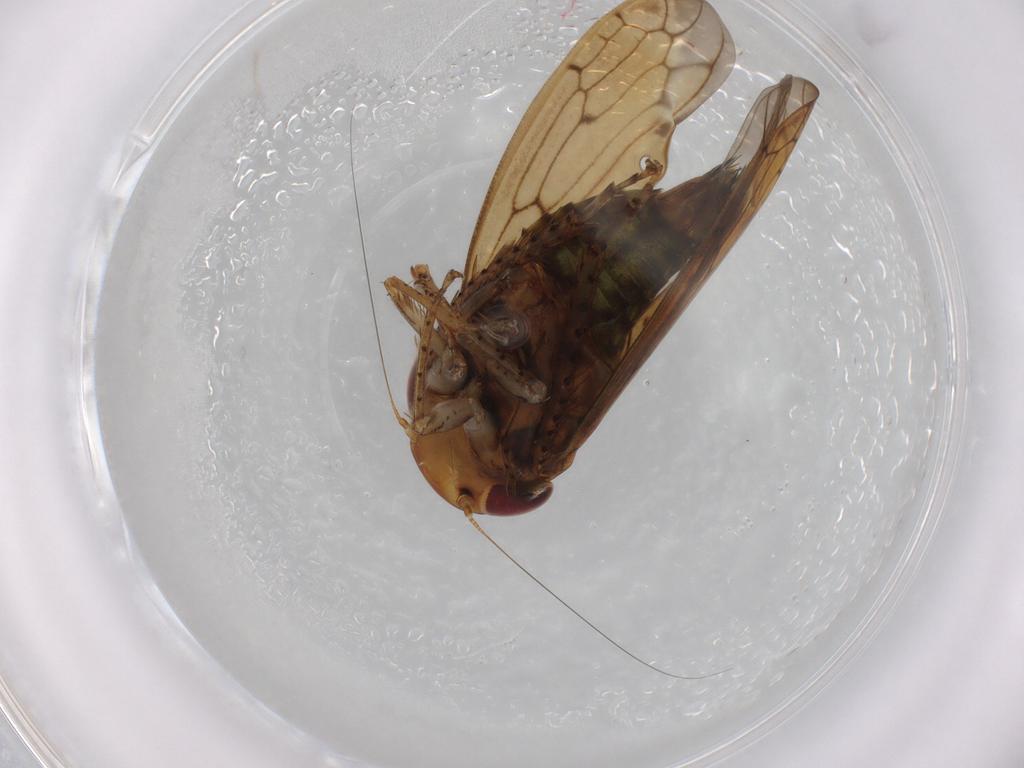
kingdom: Animalia
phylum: Arthropoda
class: Insecta
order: Hemiptera
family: Cicadellidae
